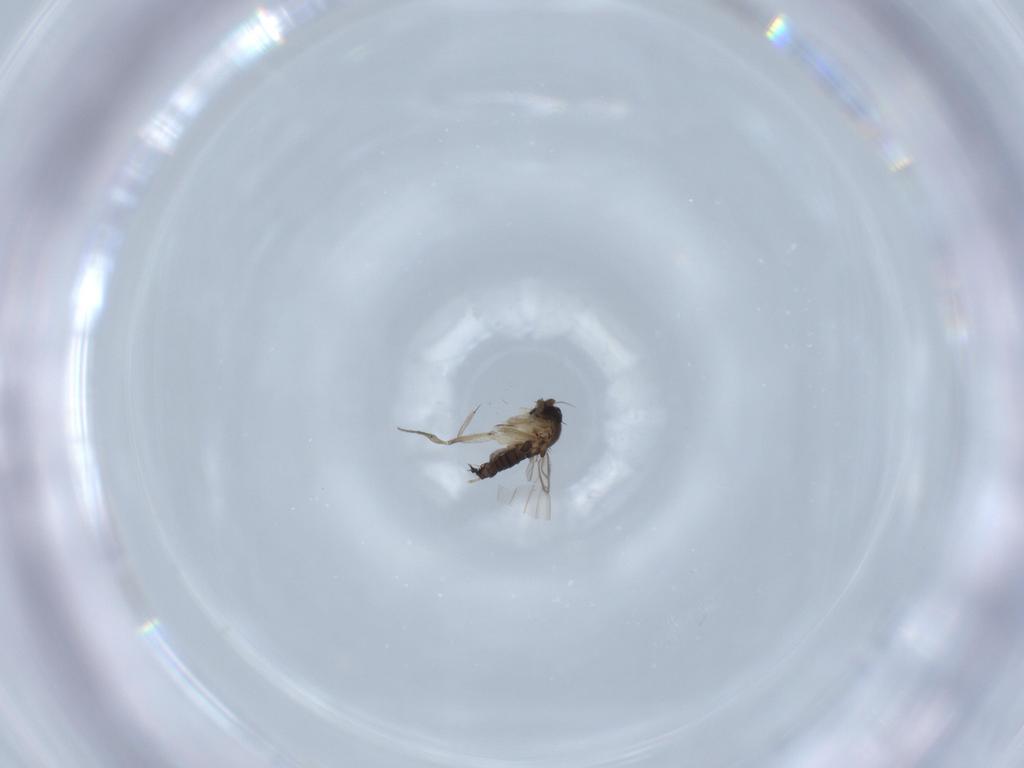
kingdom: Animalia
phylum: Arthropoda
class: Insecta
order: Diptera
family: Phoridae
